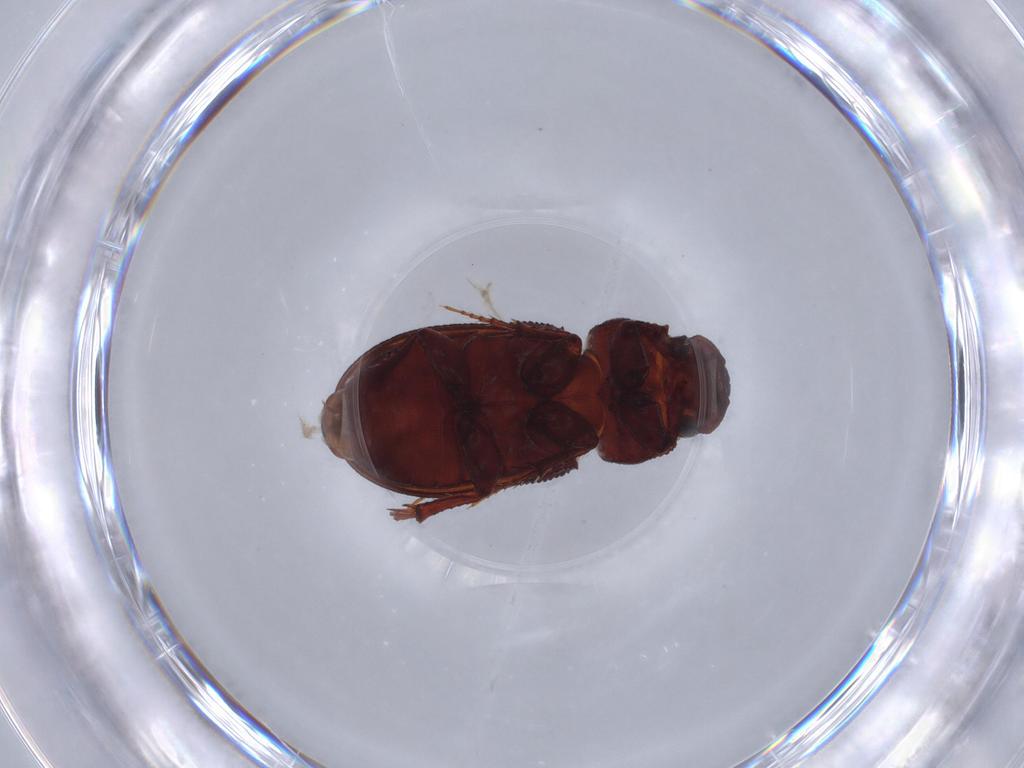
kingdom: Animalia
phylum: Arthropoda
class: Insecta
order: Coleoptera
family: Scarabaeidae
